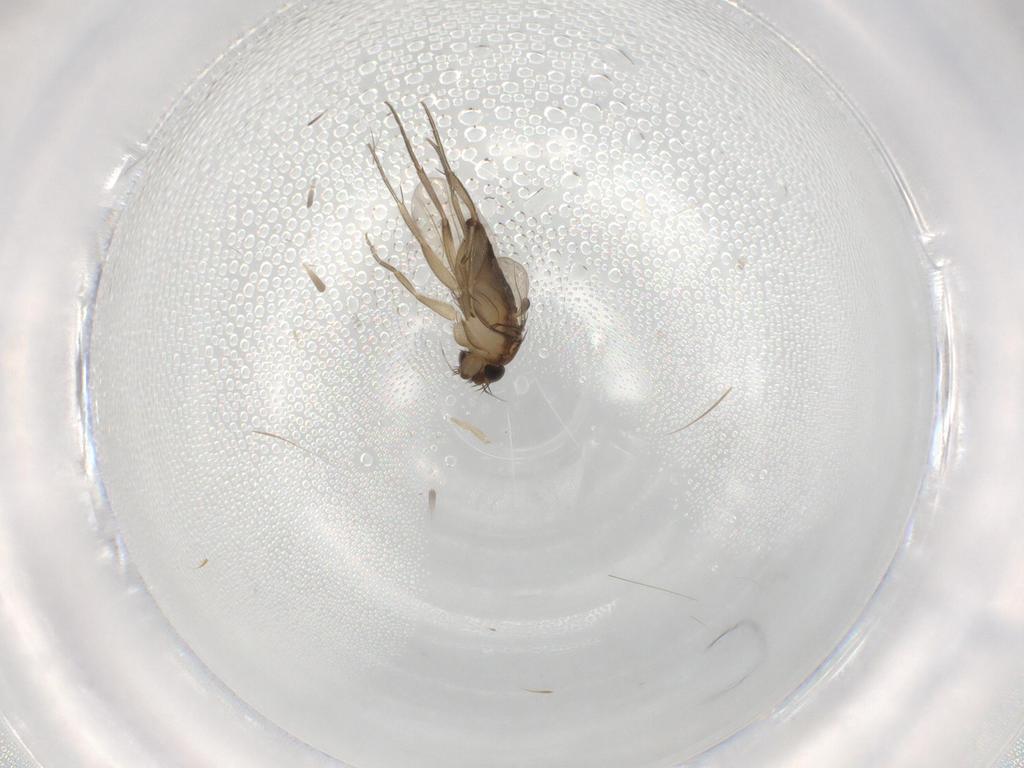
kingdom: Animalia
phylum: Arthropoda
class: Insecta
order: Diptera
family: Phoridae
